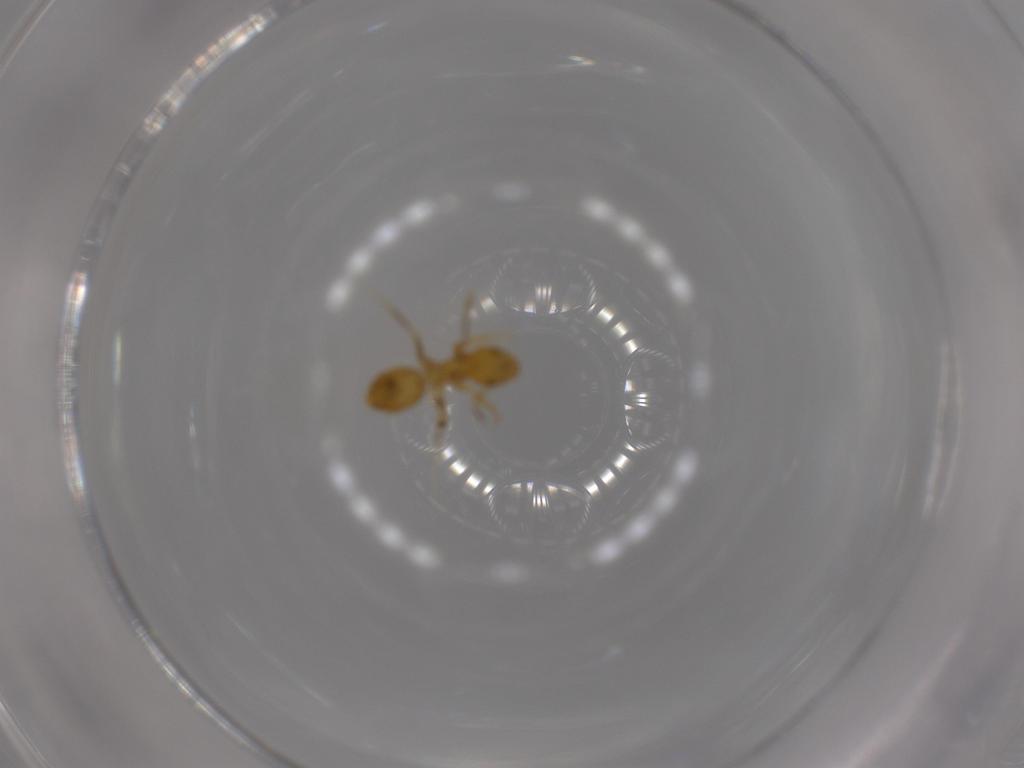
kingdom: Animalia
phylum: Arthropoda
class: Insecta
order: Hymenoptera
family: Formicidae
